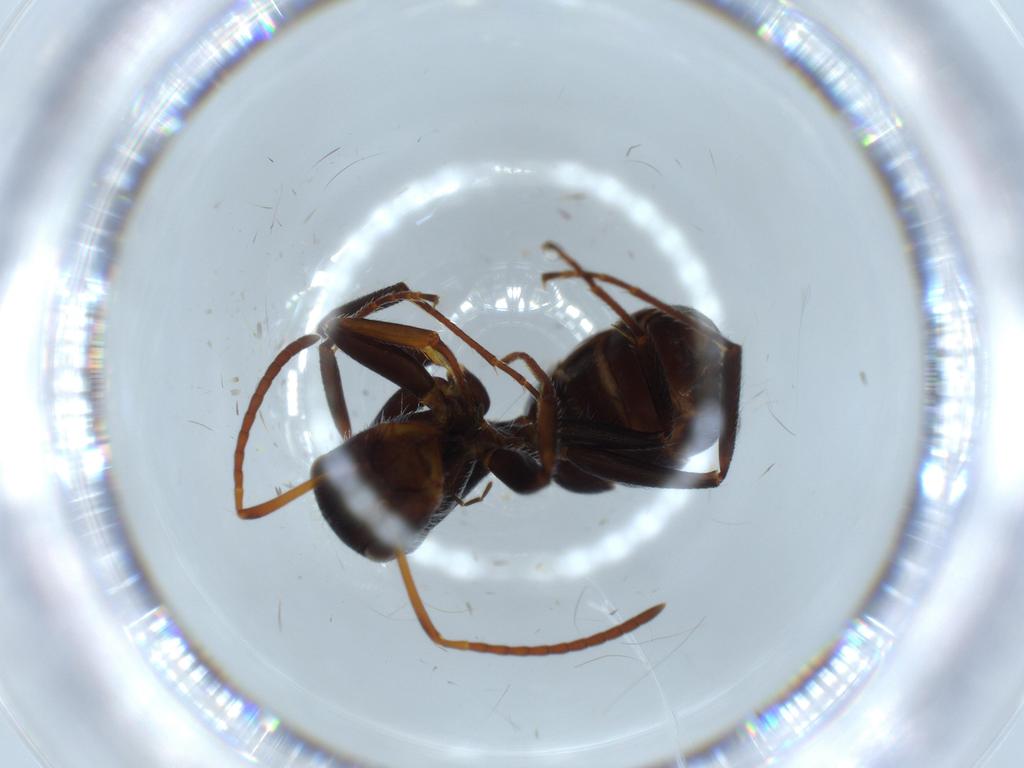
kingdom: Animalia
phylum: Arthropoda
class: Insecta
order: Hymenoptera
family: Formicidae
